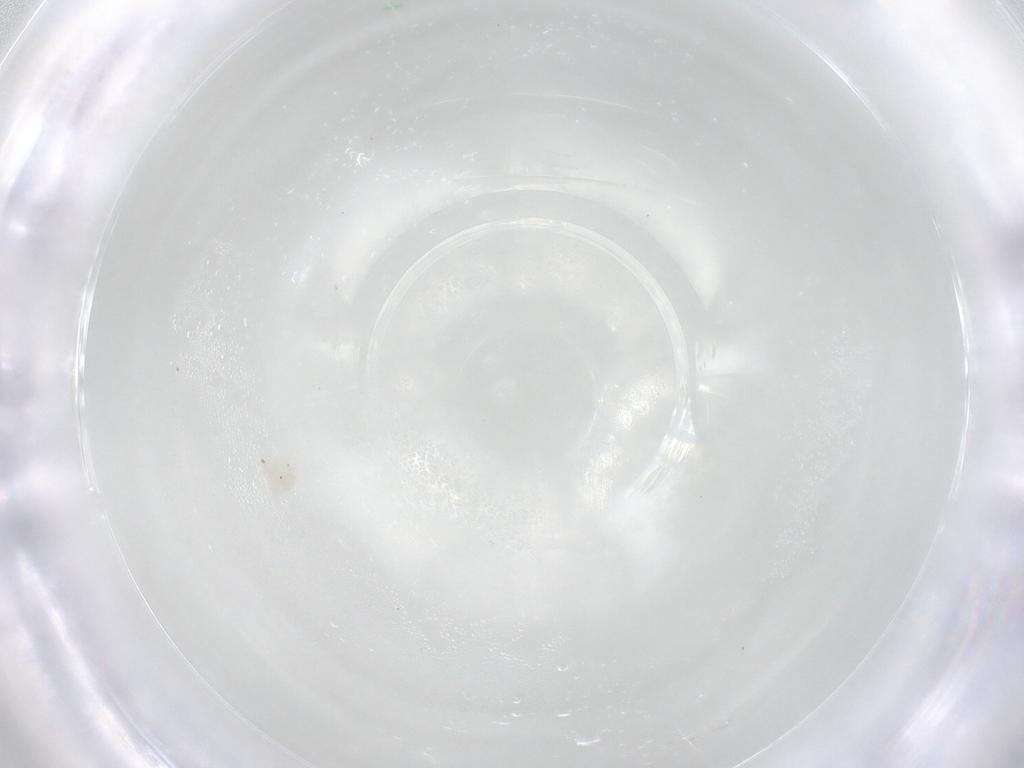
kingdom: Animalia
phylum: Arthropoda
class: Arachnida
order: Trombidiformes
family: Anystidae
